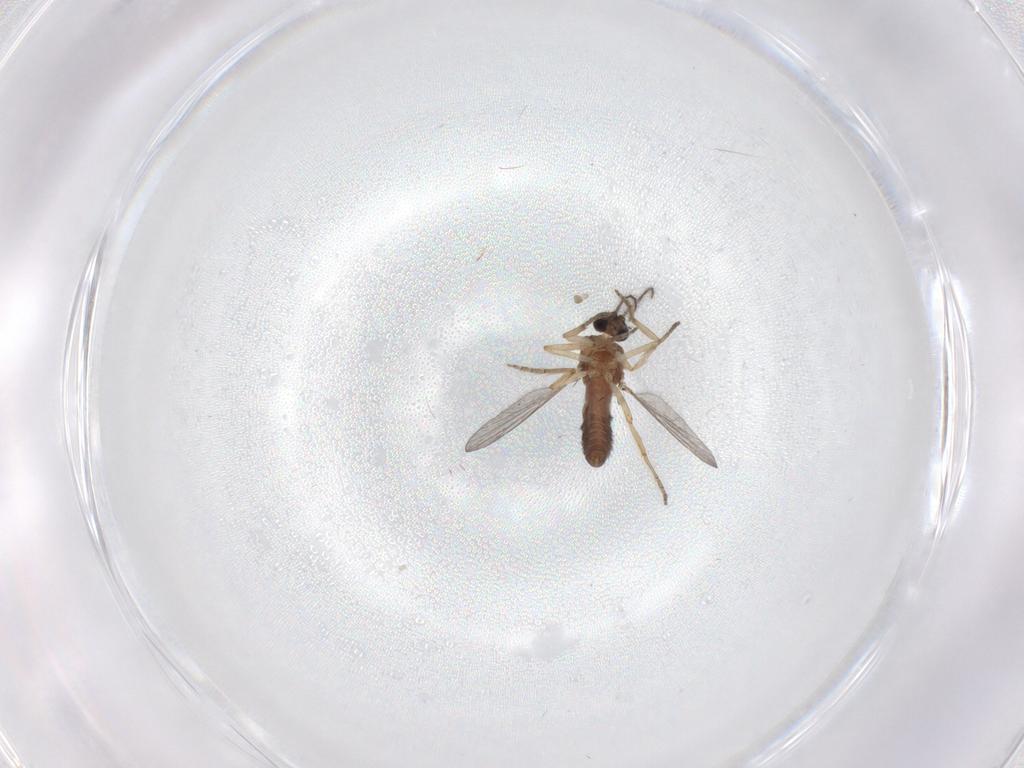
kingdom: Animalia
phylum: Arthropoda
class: Insecta
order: Diptera
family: Ceratopogonidae
